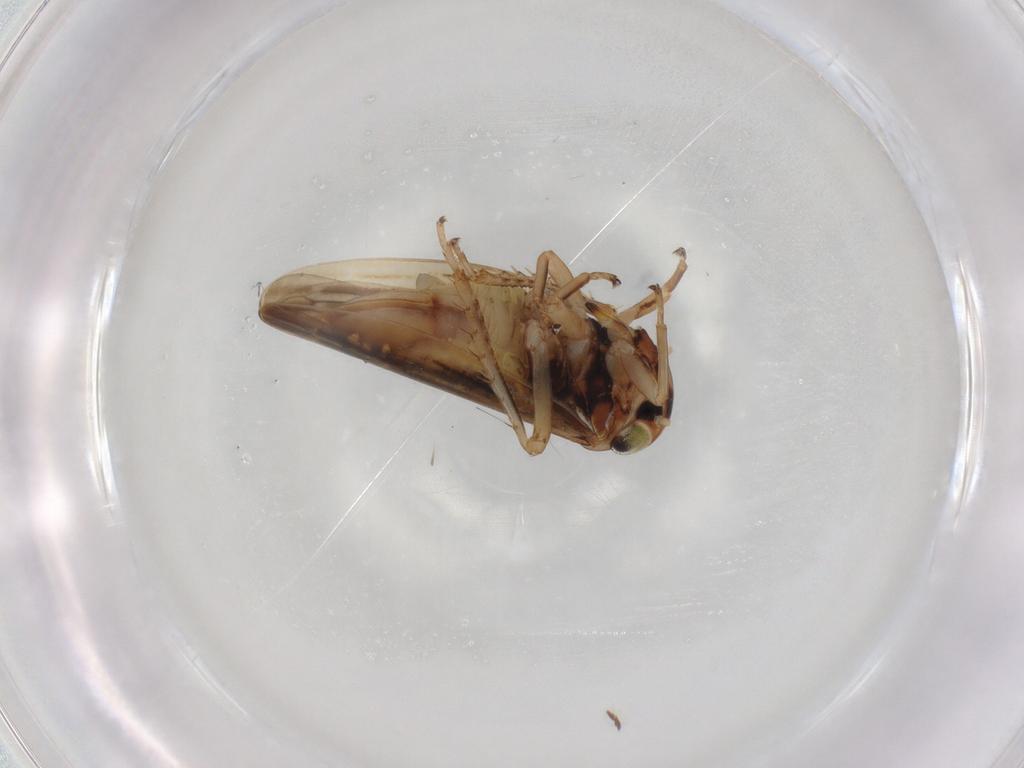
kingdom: Animalia
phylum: Arthropoda
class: Insecta
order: Hemiptera
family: Cicadellidae
